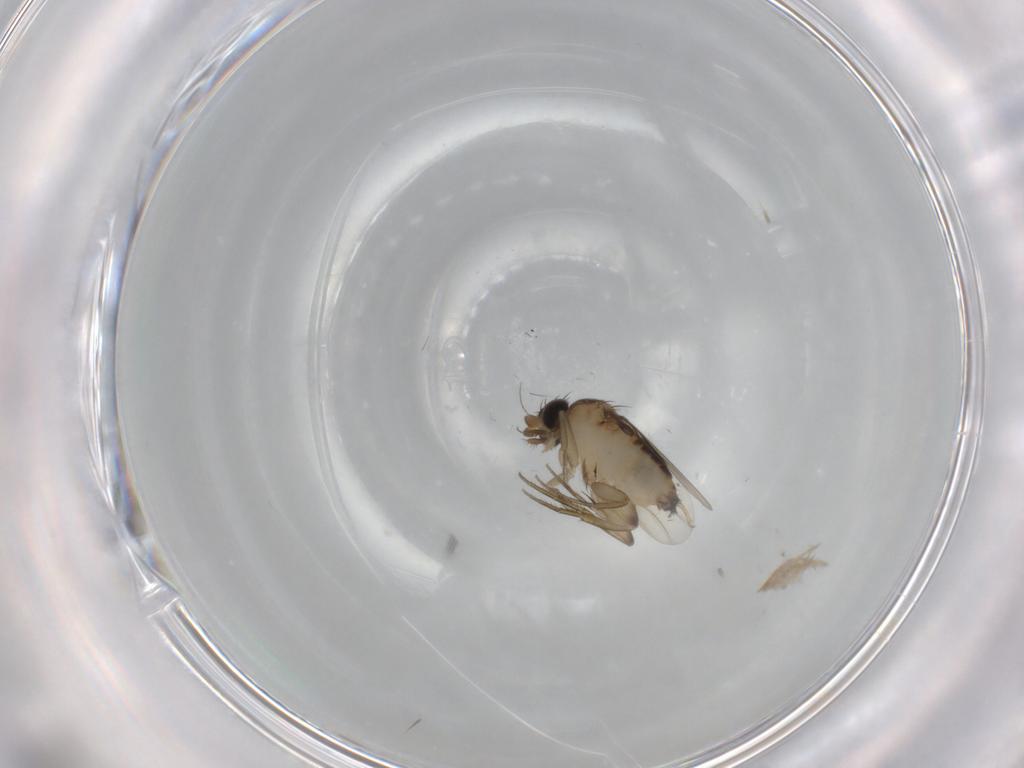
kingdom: Animalia
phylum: Arthropoda
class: Insecta
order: Diptera
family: Phoridae
